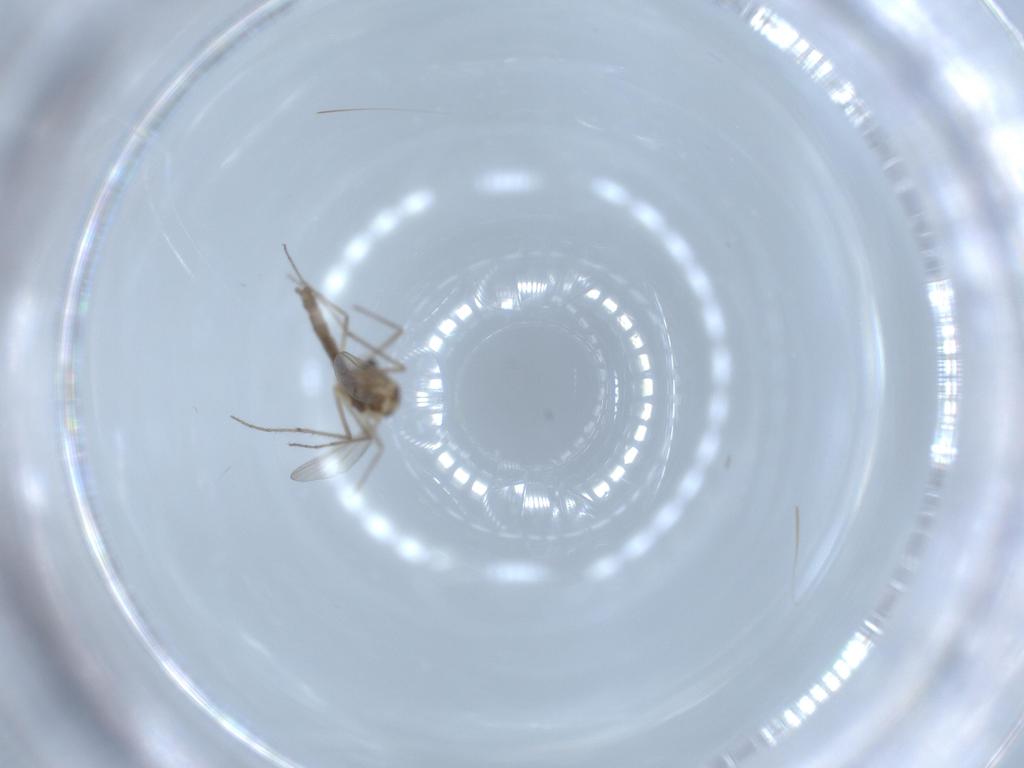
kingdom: Animalia
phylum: Arthropoda
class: Insecta
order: Diptera
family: Chironomidae
